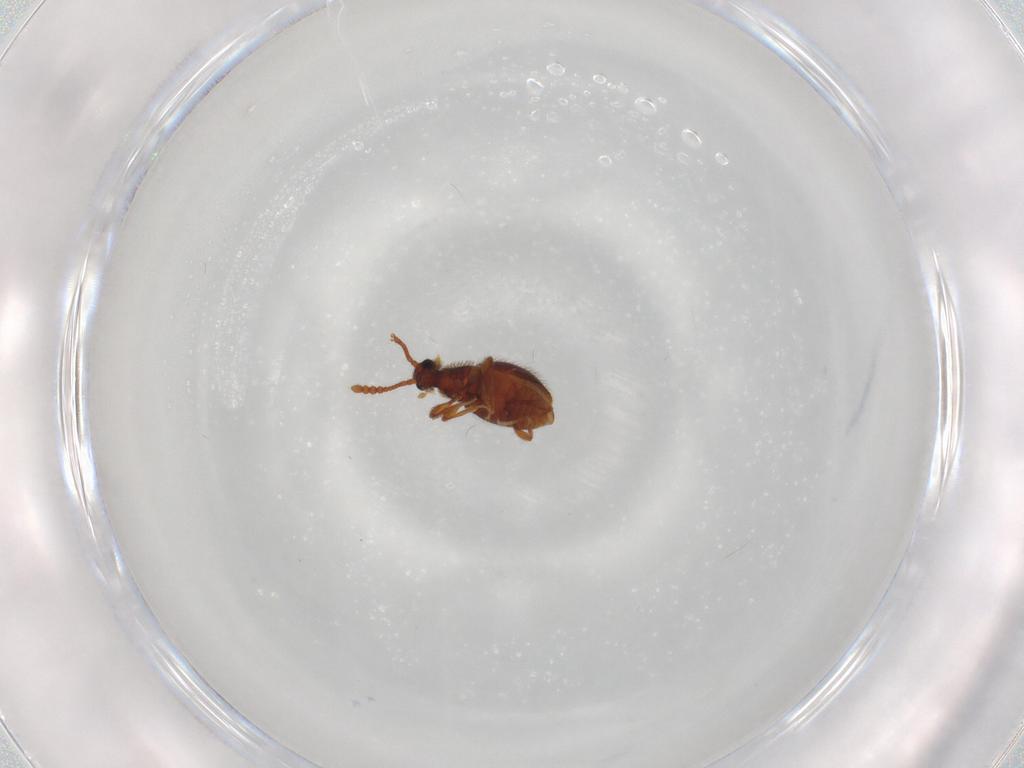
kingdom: Animalia
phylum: Arthropoda
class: Insecta
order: Coleoptera
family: Staphylinidae
